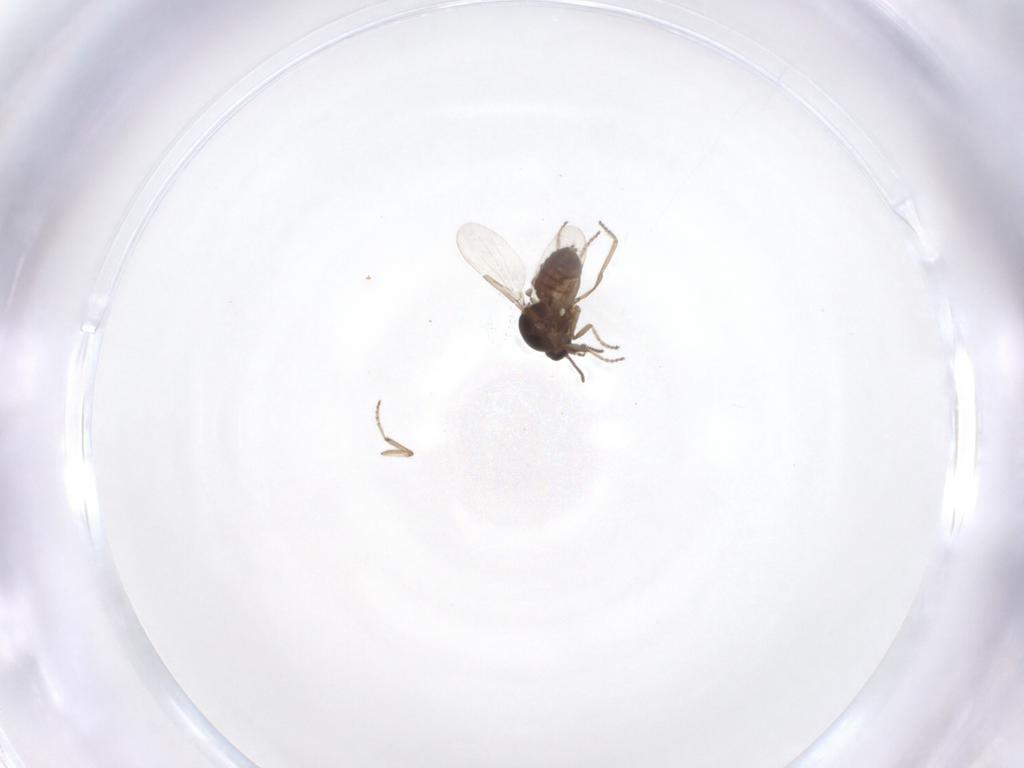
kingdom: Animalia
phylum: Arthropoda
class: Insecta
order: Diptera
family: Ceratopogonidae
